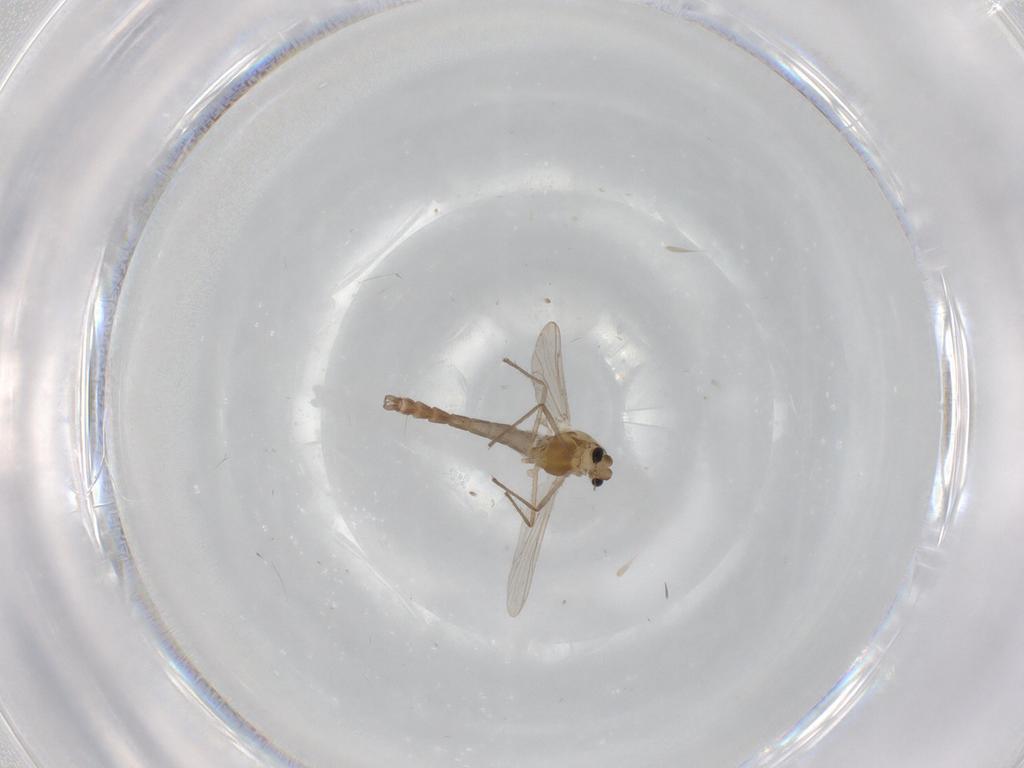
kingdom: Animalia
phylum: Arthropoda
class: Insecta
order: Diptera
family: Chironomidae
